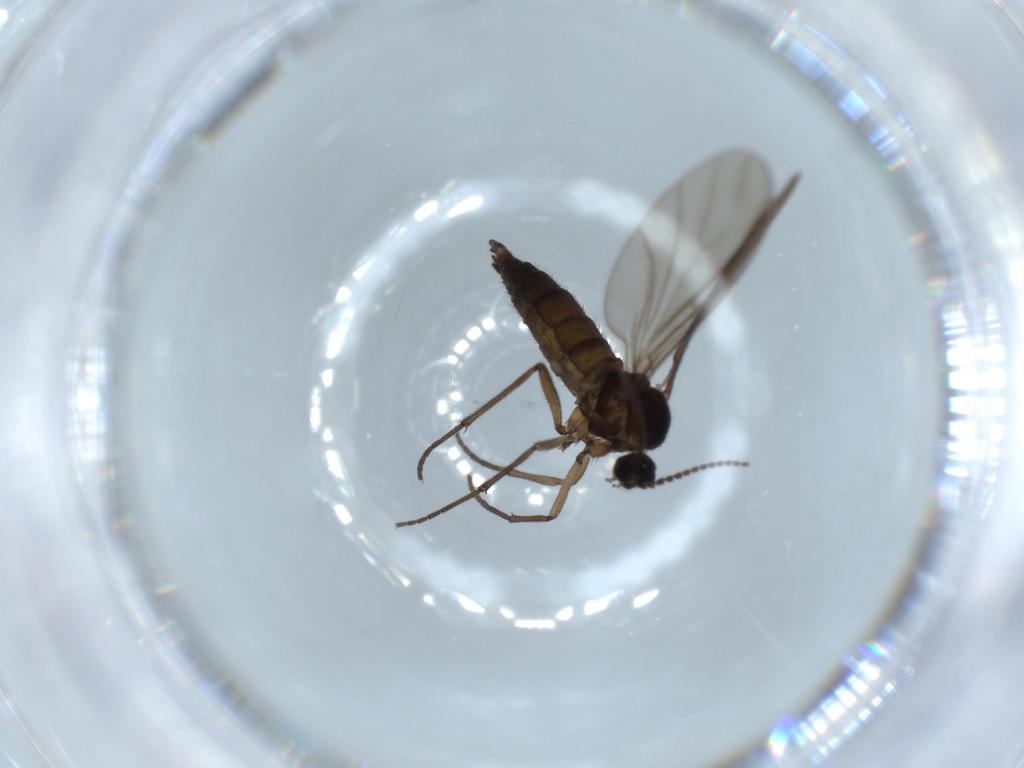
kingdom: Animalia
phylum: Arthropoda
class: Insecta
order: Diptera
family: Sciaridae
